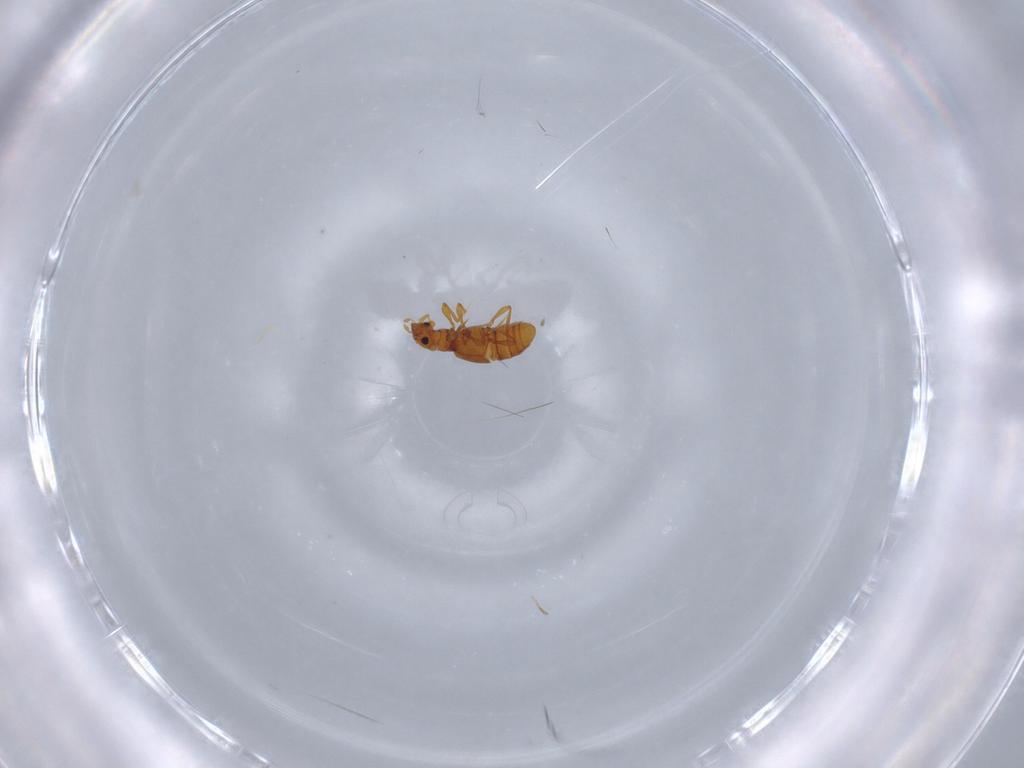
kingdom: Animalia
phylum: Arthropoda
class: Insecta
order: Coleoptera
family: Staphylinidae
